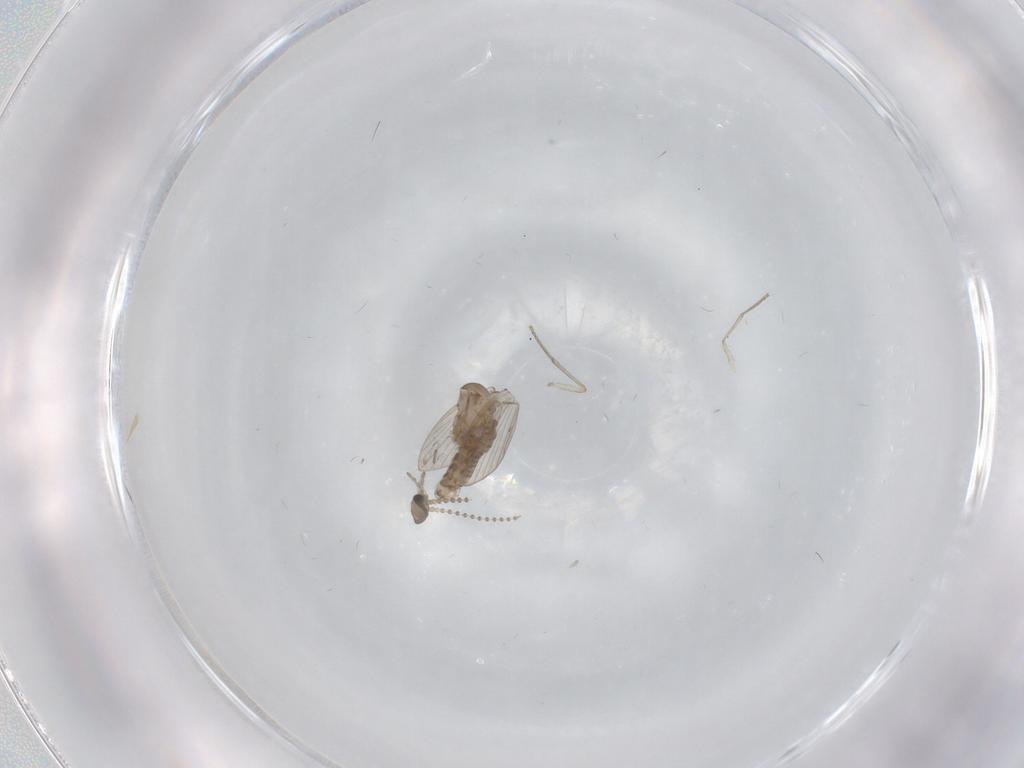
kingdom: Animalia
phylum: Arthropoda
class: Insecta
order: Diptera
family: Psychodidae
